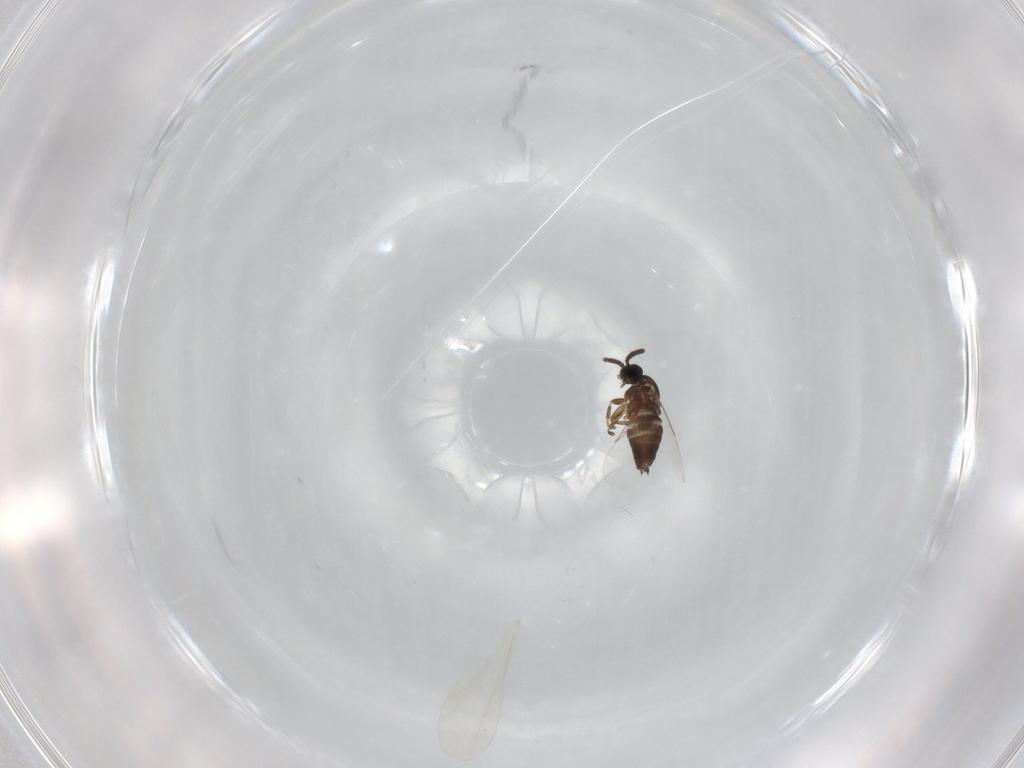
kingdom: Animalia
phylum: Arthropoda
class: Insecta
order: Diptera
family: Scatopsidae
